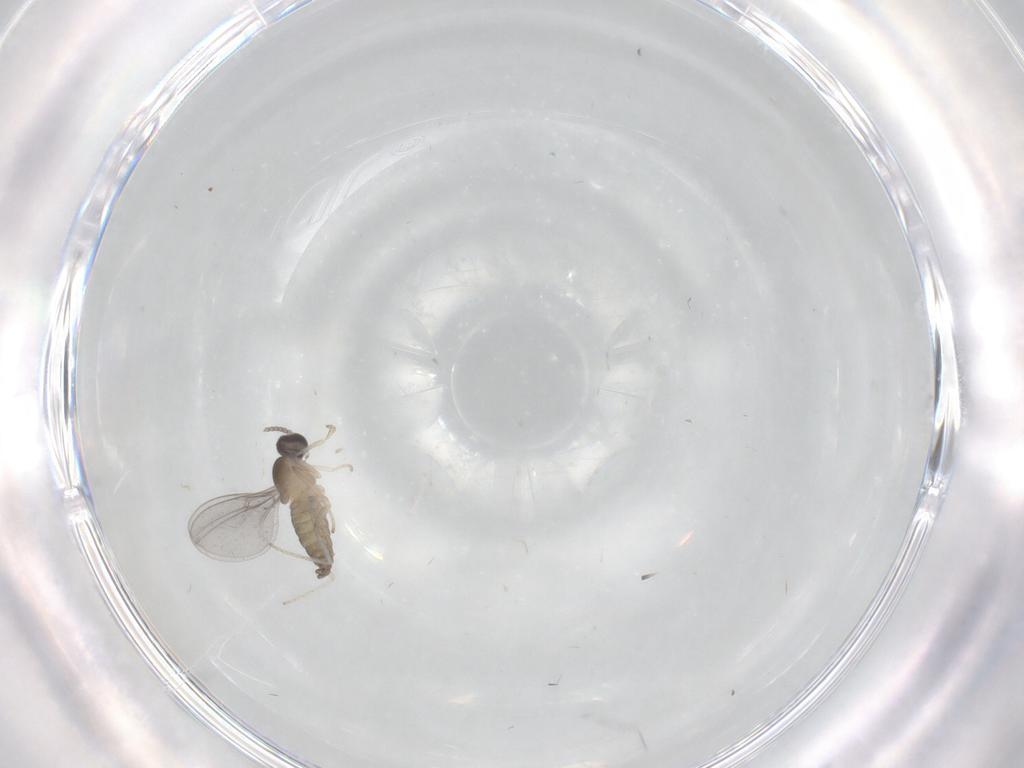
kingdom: Animalia
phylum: Arthropoda
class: Insecta
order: Diptera
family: Cecidomyiidae
